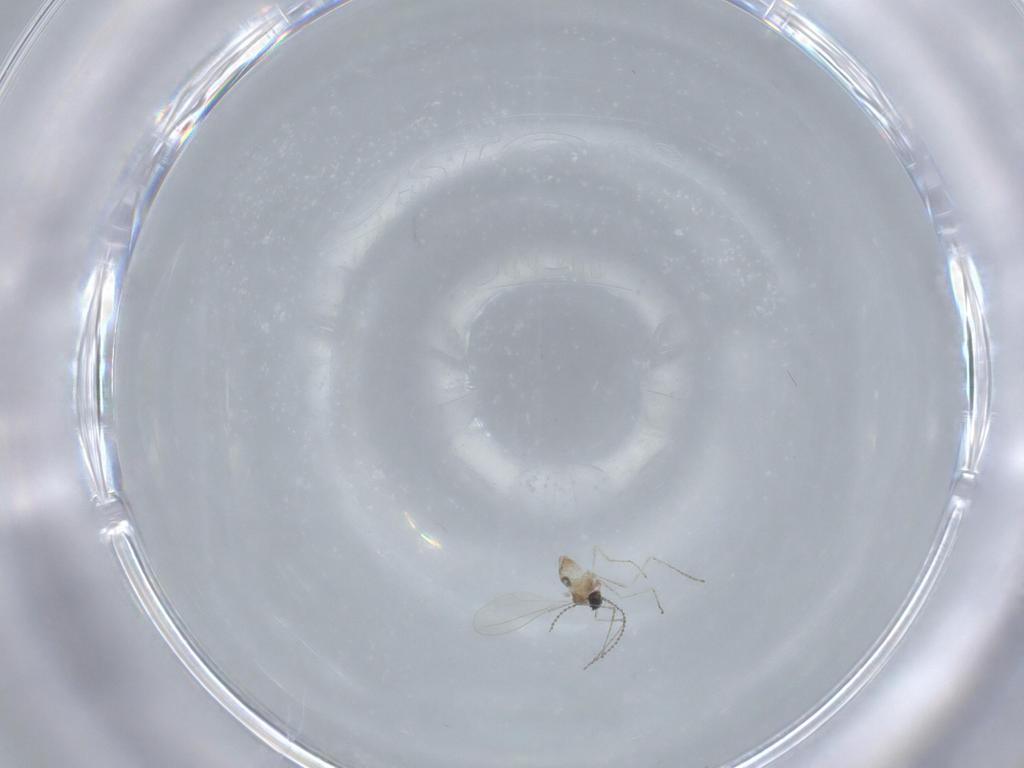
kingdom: Animalia
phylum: Arthropoda
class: Insecta
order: Diptera
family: Cecidomyiidae
